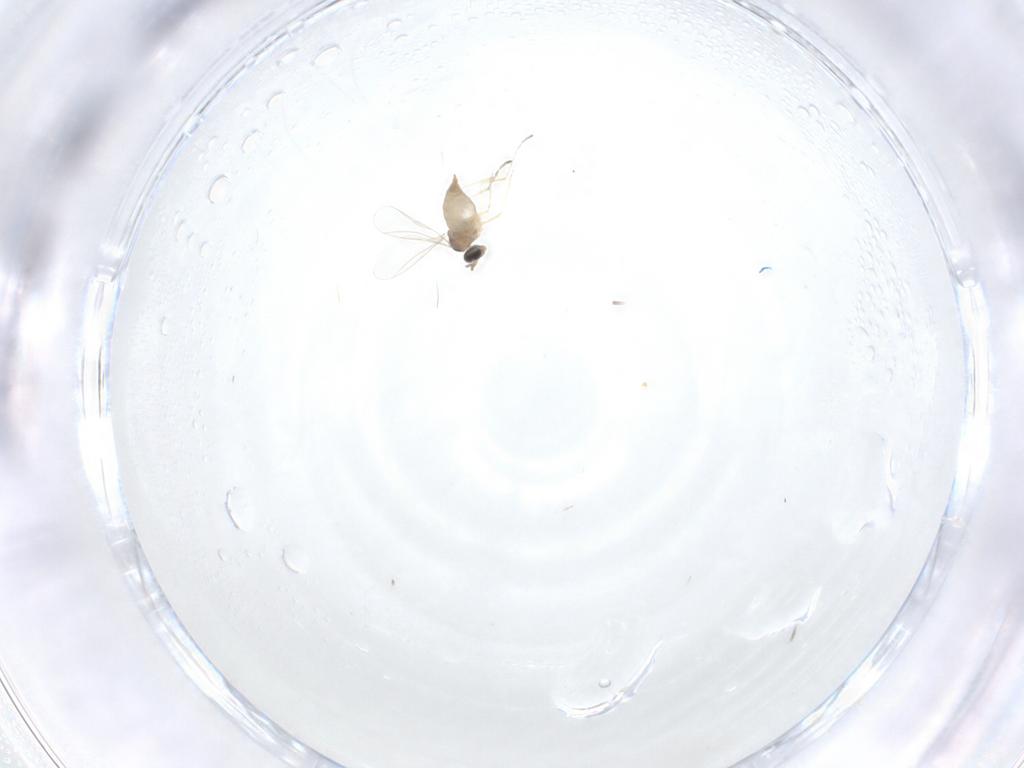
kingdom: Animalia
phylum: Arthropoda
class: Insecta
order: Diptera
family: Cecidomyiidae
